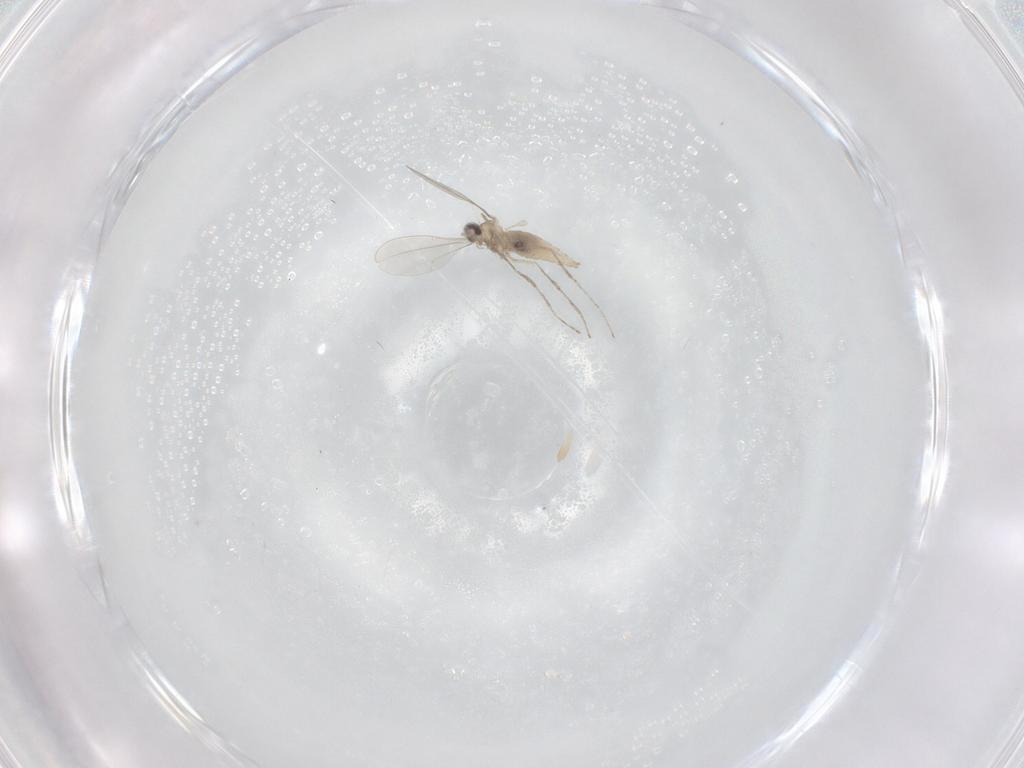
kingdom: Animalia
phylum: Arthropoda
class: Insecta
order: Diptera
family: Cecidomyiidae
